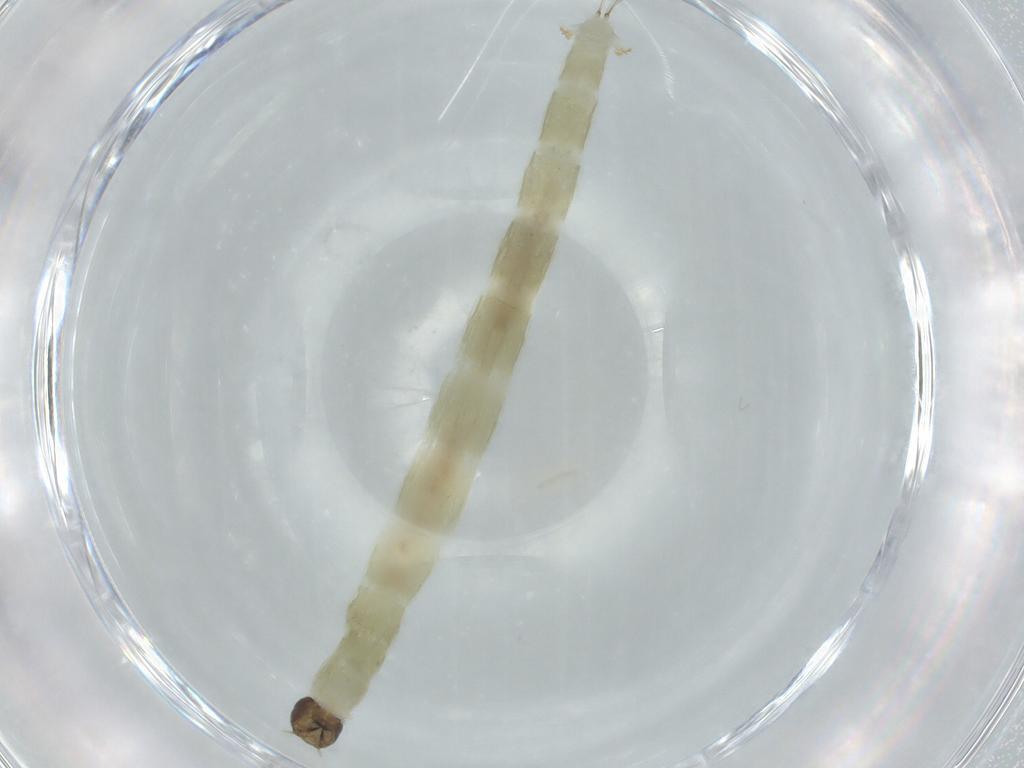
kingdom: Animalia
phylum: Arthropoda
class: Insecta
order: Diptera
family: Chironomidae
